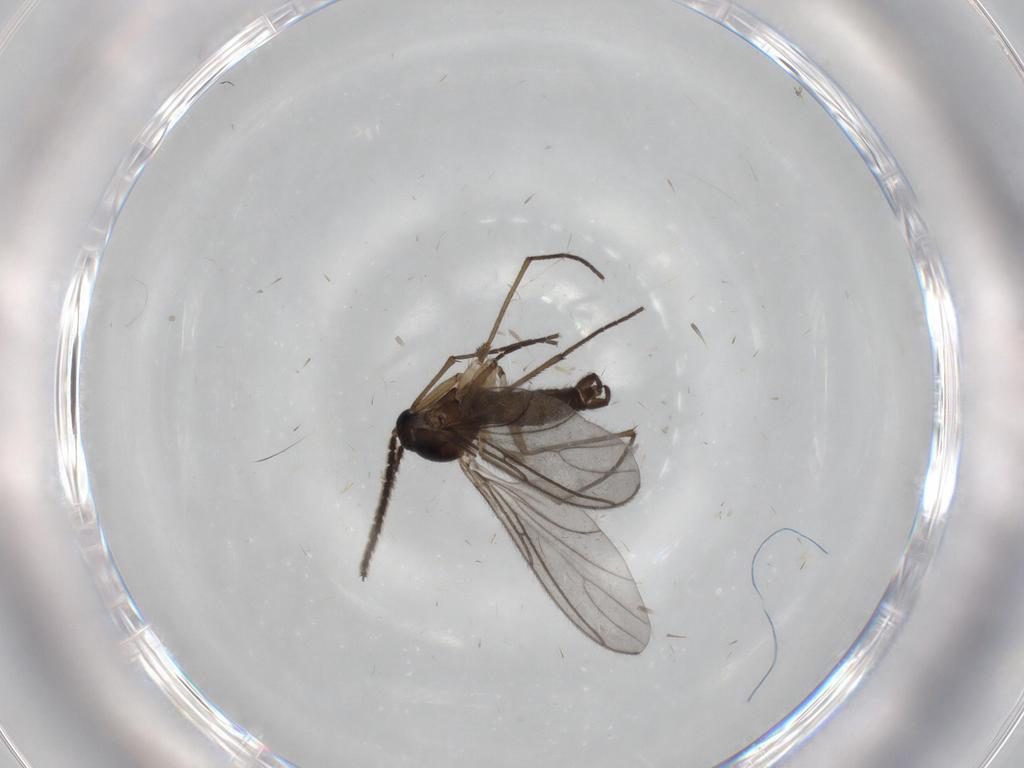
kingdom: Animalia
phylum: Arthropoda
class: Insecta
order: Diptera
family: Sciaridae
